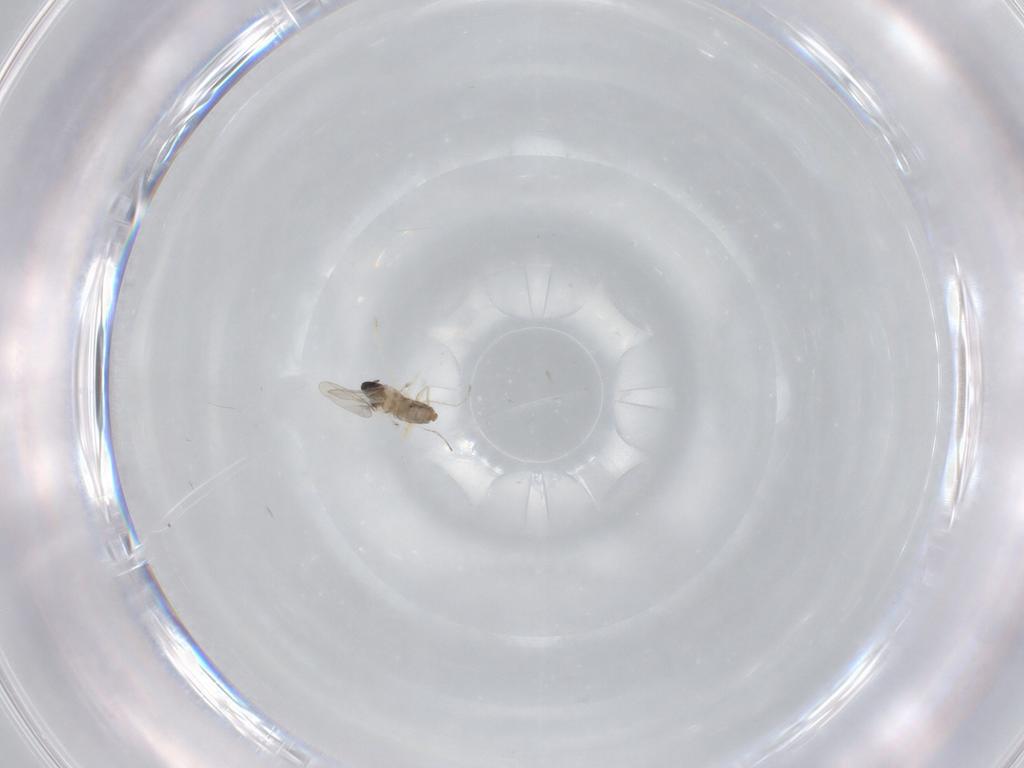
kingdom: Animalia
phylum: Arthropoda
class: Insecta
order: Diptera
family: Cecidomyiidae
